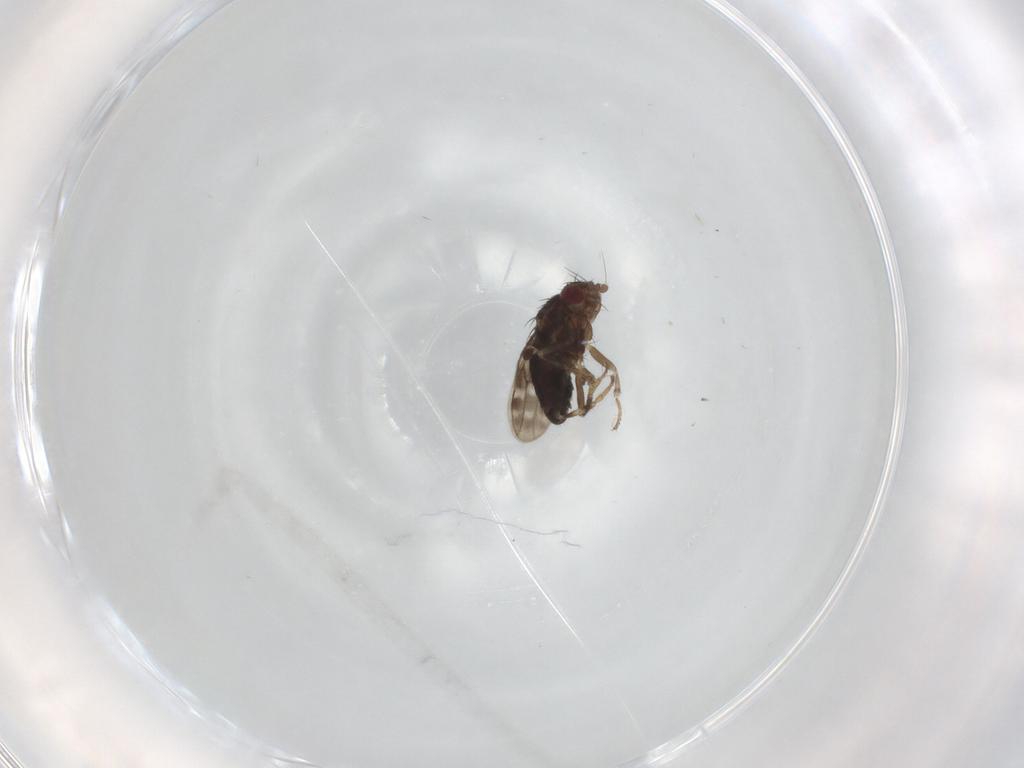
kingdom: Animalia
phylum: Arthropoda
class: Insecta
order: Diptera
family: Sphaeroceridae
